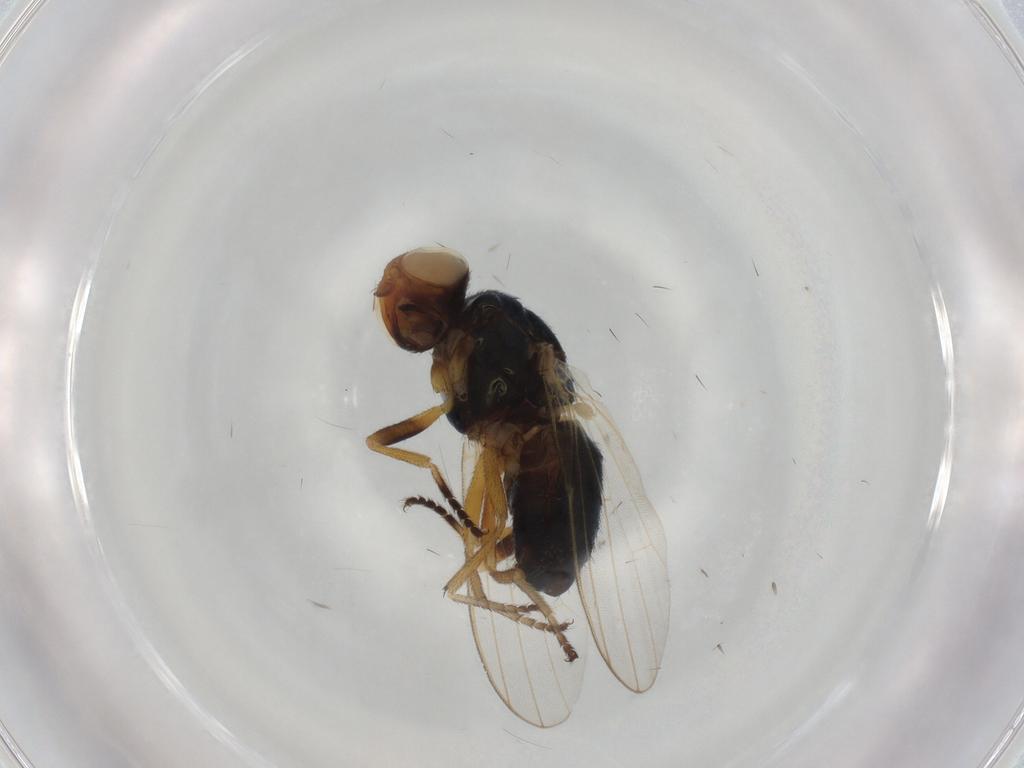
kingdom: Animalia
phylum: Arthropoda
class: Insecta
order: Diptera
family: Piophilidae
